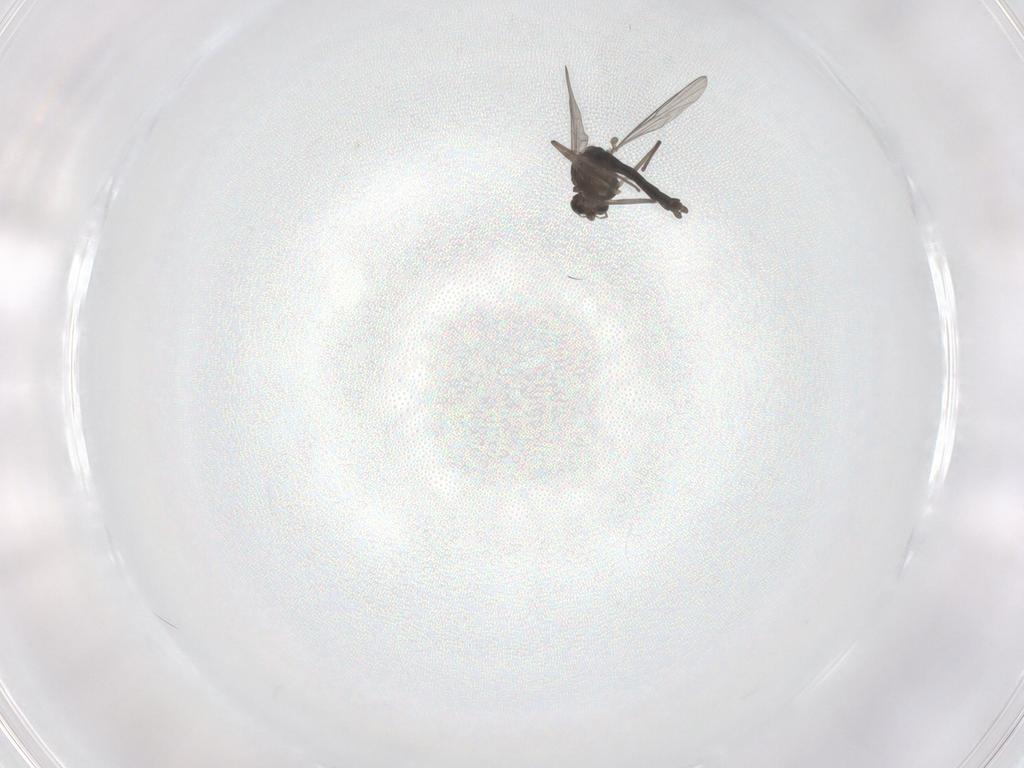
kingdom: Animalia
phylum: Arthropoda
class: Insecta
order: Diptera
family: Chironomidae
